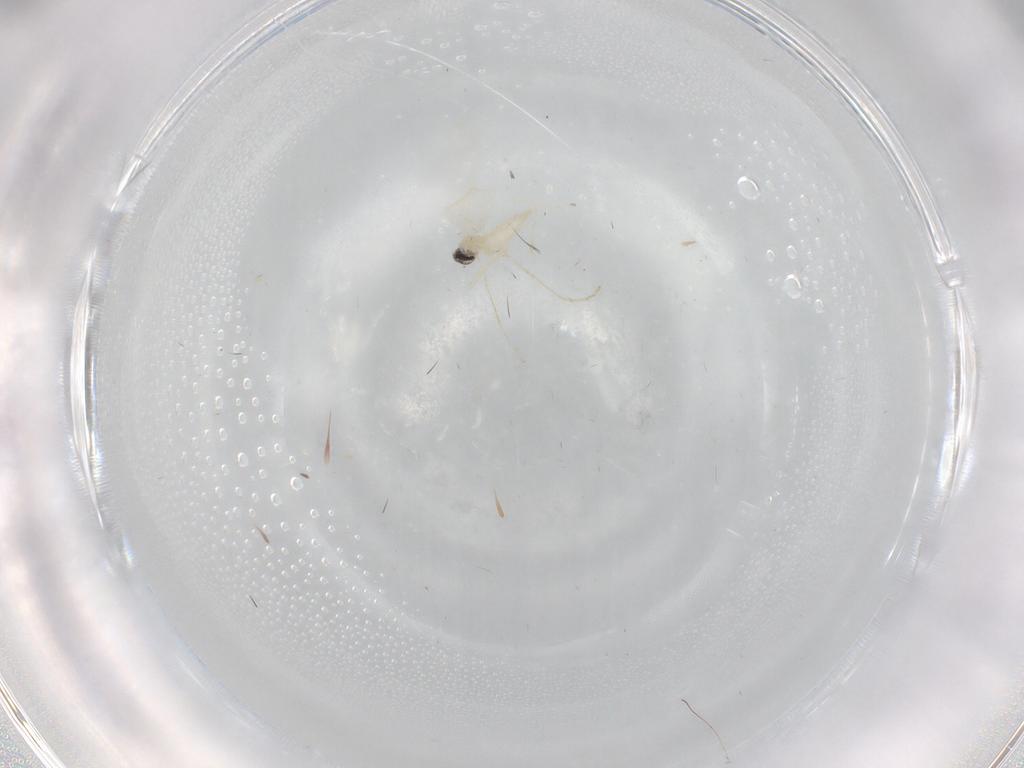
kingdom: Animalia
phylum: Arthropoda
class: Insecta
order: Diptera
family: Cecidomyiidae
